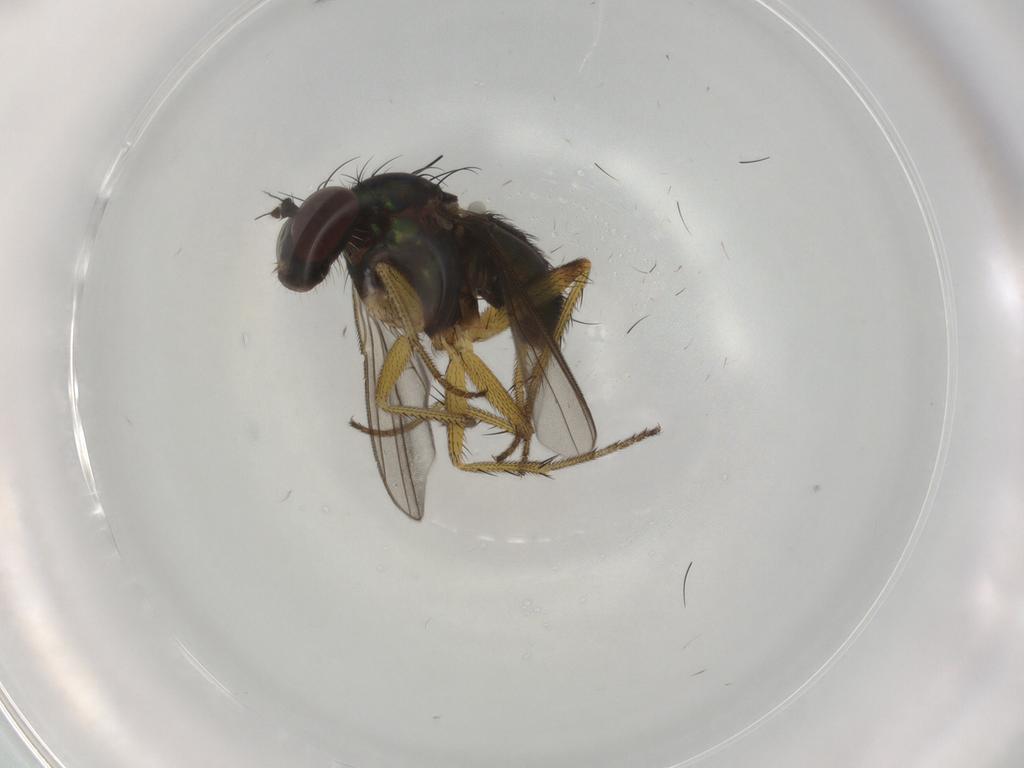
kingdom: Animalia
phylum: Arthropoda
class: Insecta
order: Diptera
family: Dolichopodidae
